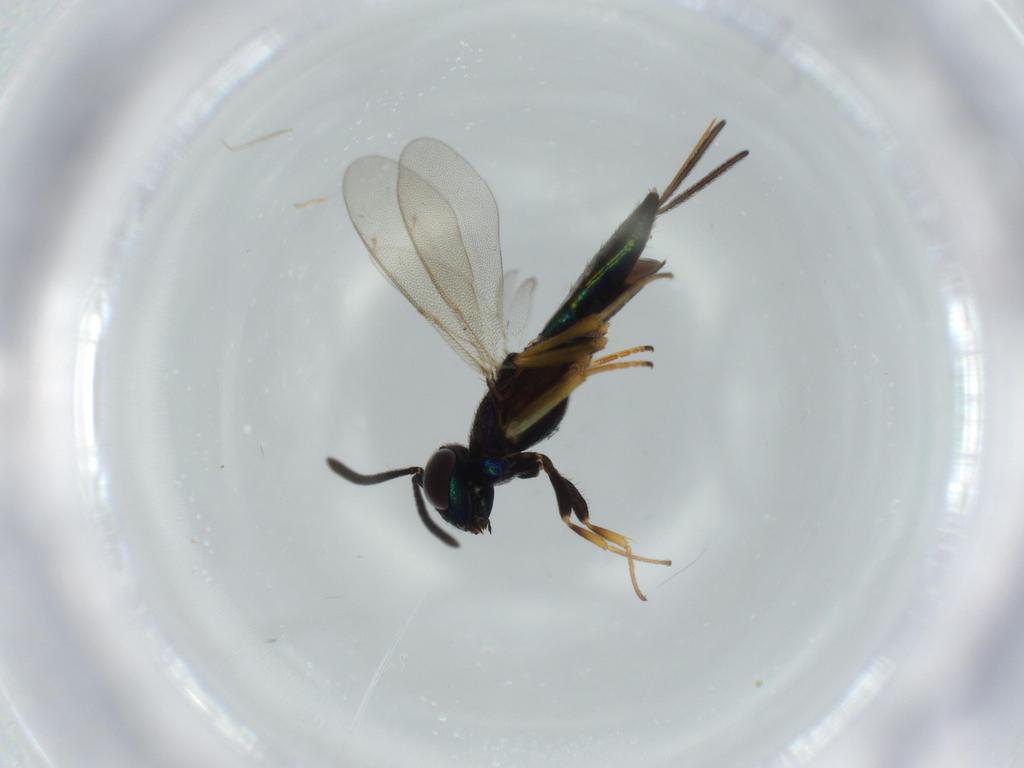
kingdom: Animalia
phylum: Arthropoda
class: Insecta
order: Hymenoptera
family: Eupelmidae
